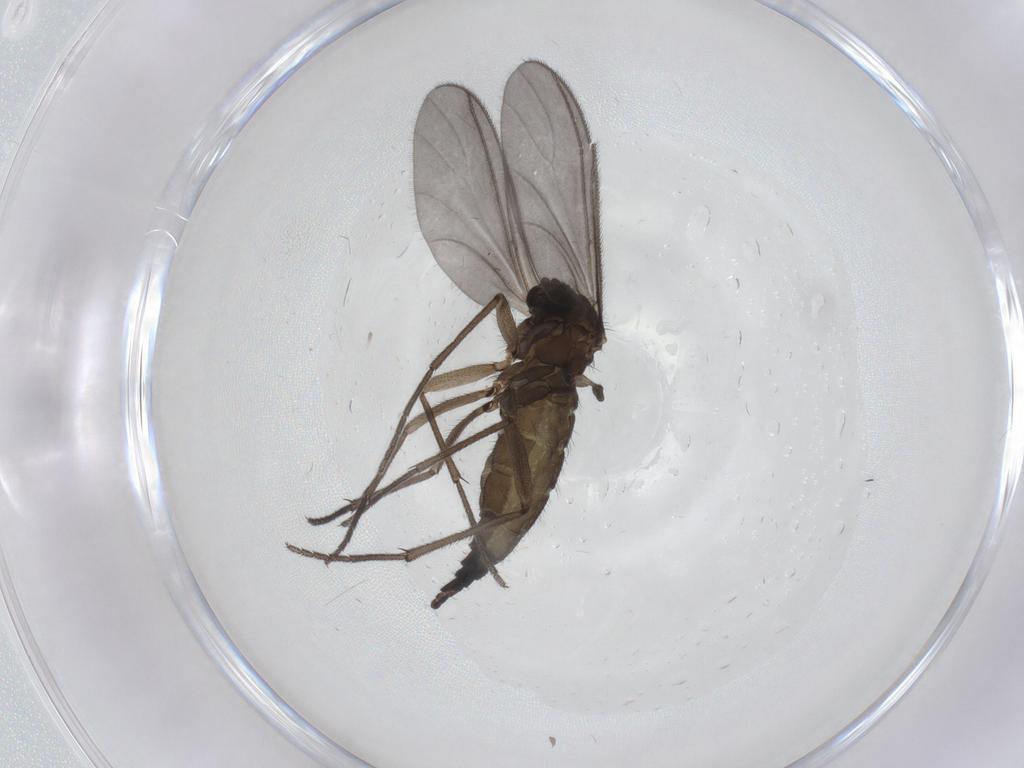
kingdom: Animalia
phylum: Arthropoda
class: Insecta
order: Diptera
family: Sciaridae
